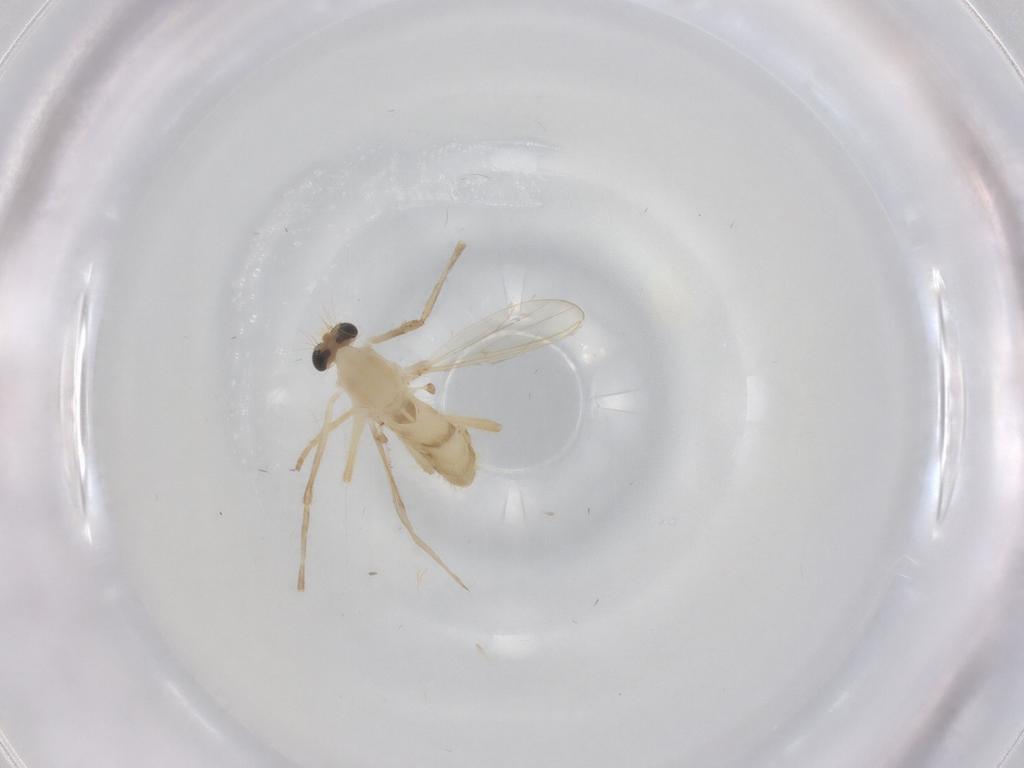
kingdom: Animalia
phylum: Arthropoda
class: Insecta
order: Diptera
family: Chironomidae
